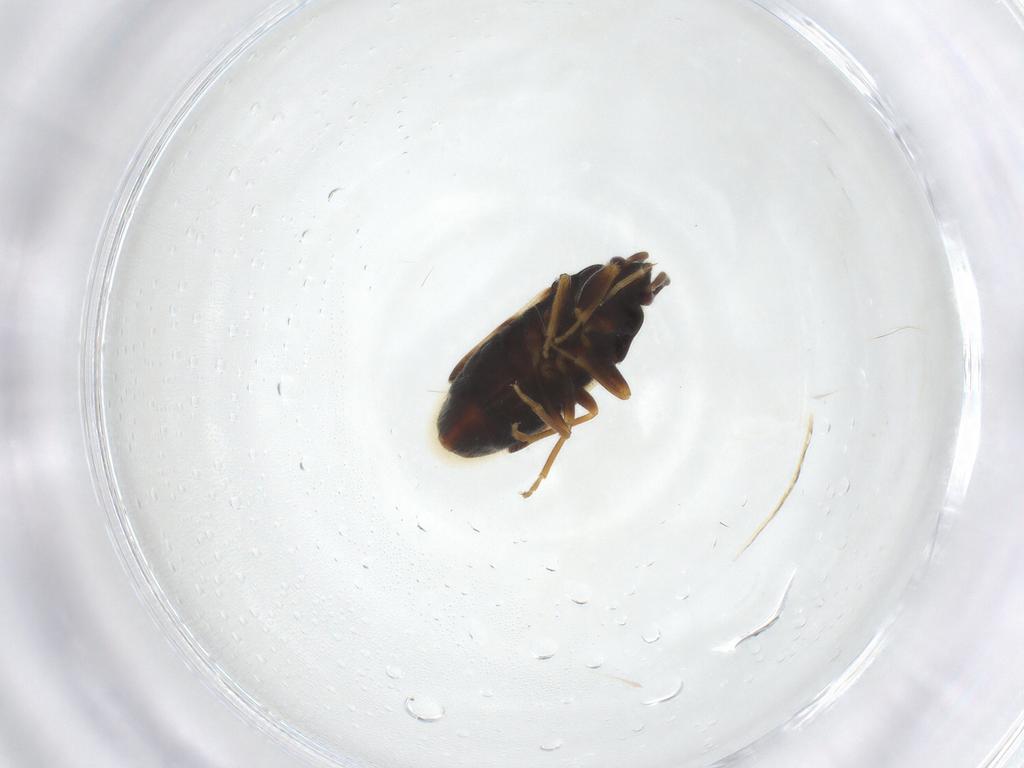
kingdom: Animalia
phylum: Arthropoda
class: Insecta
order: Hemiptera
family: Rhyparochromidae
